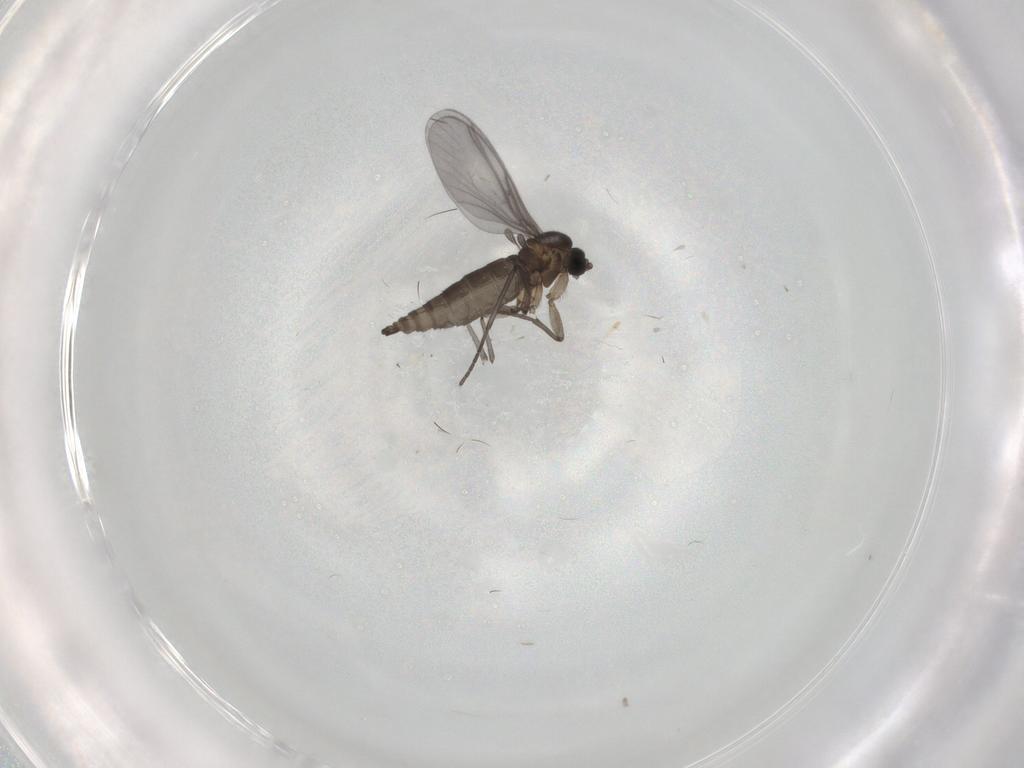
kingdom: Animalia
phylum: Arthropoda
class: Insecta
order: Diptera
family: Sciaridae
